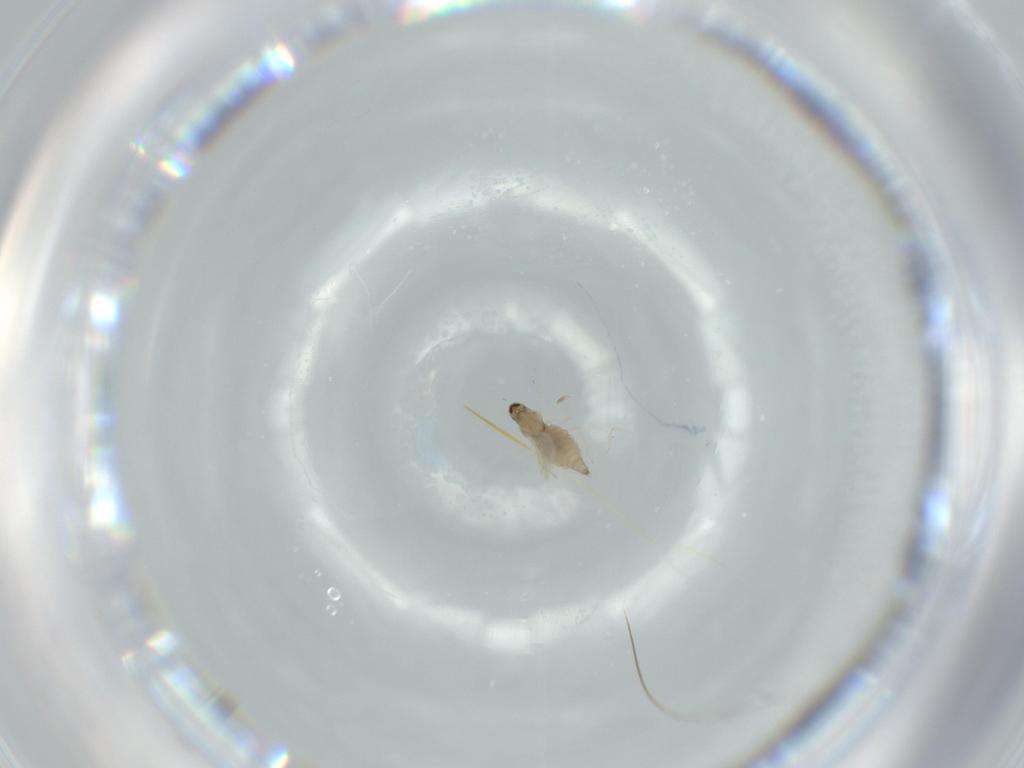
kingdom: Animalia
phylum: Arthropoda
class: Insecta
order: Diptera
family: Cecidomyiidae
